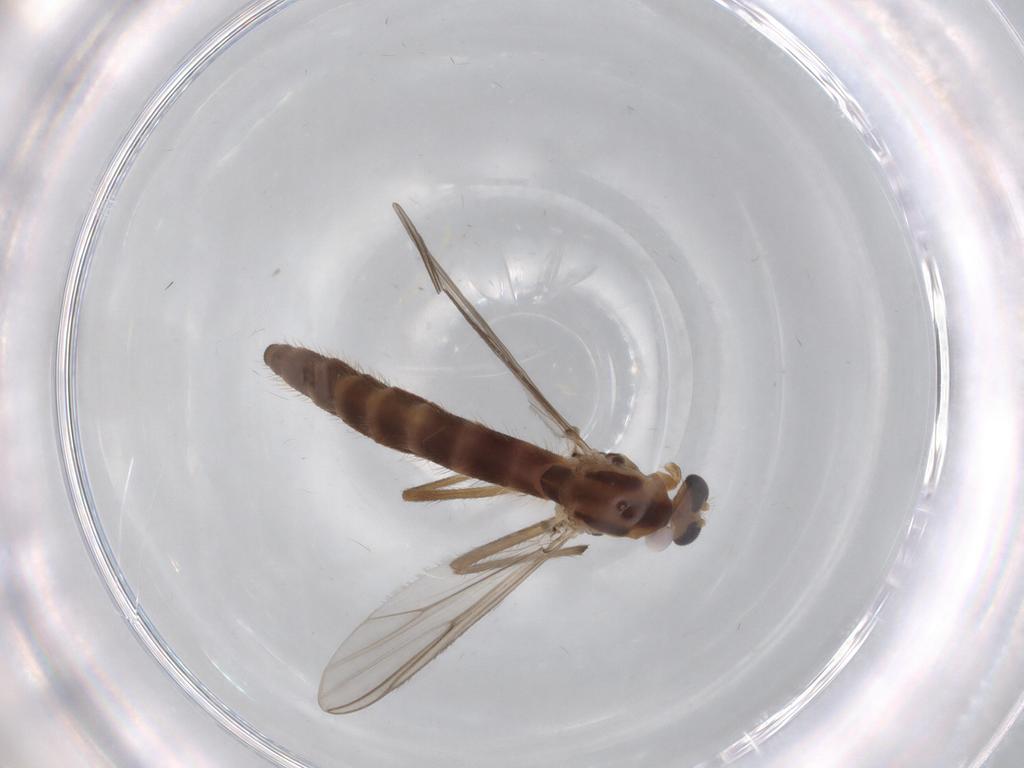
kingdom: Animalia
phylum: Arthropoda
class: Insecta
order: Diptera
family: Chironomidae
